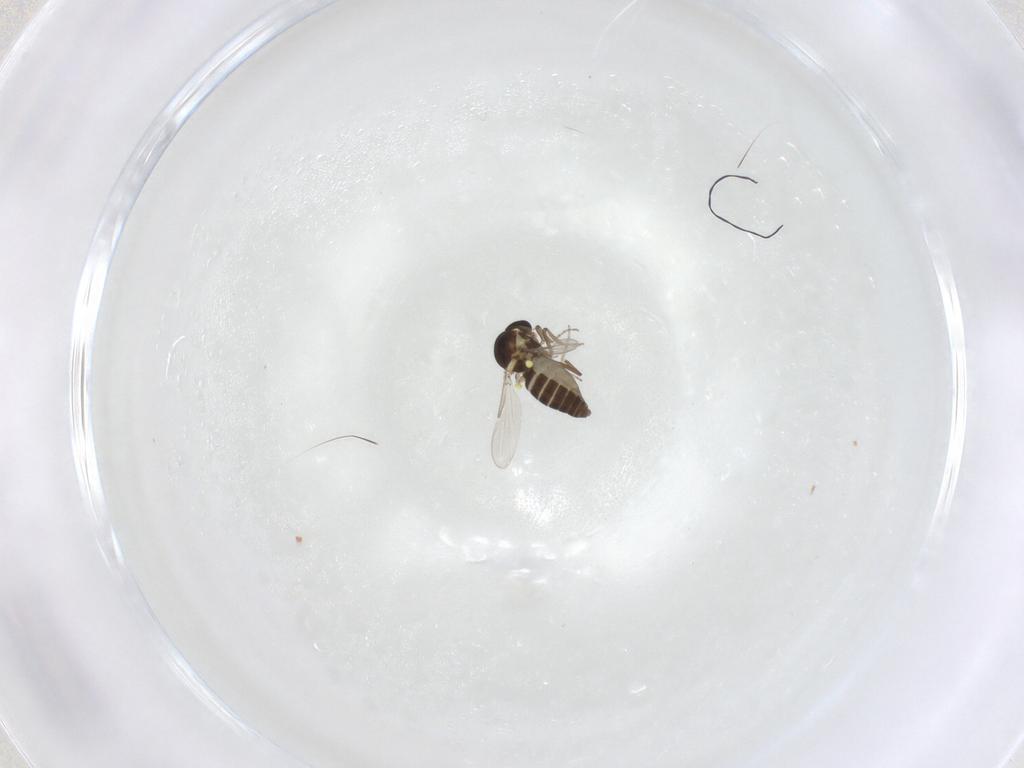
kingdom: Animalia
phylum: Arthropoda
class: Insecta
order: Diptera
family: Ceratopogonidae
